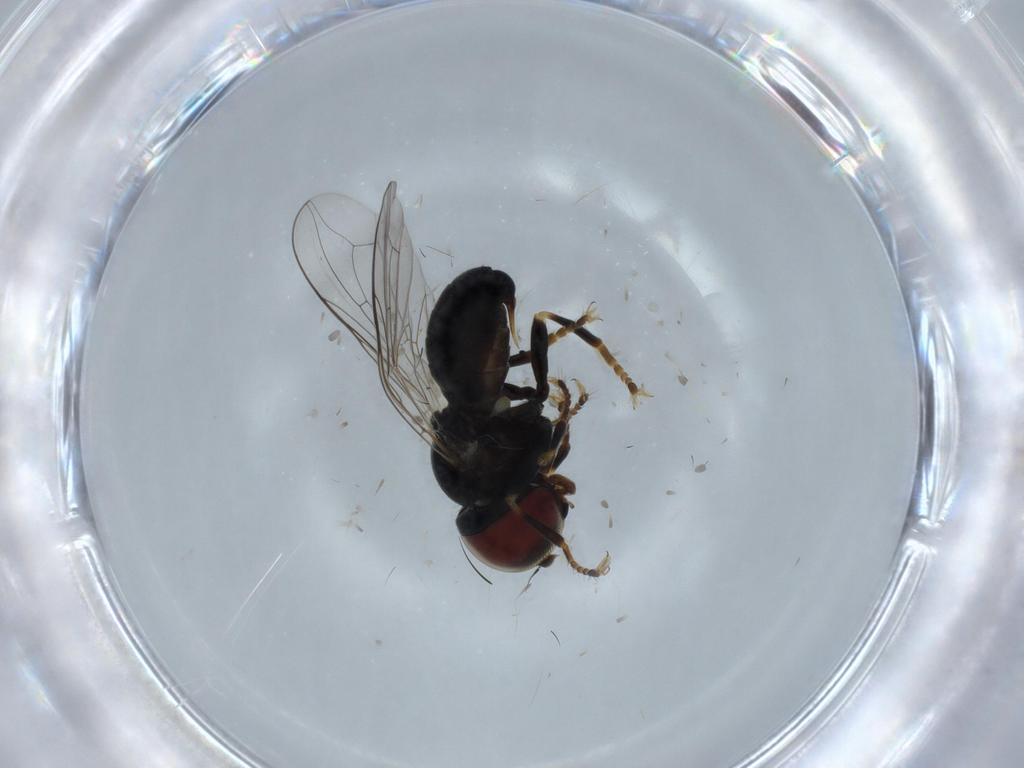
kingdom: Animalia
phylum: Arthropoda
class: Insecta
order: Diptera
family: Pipunculidae
